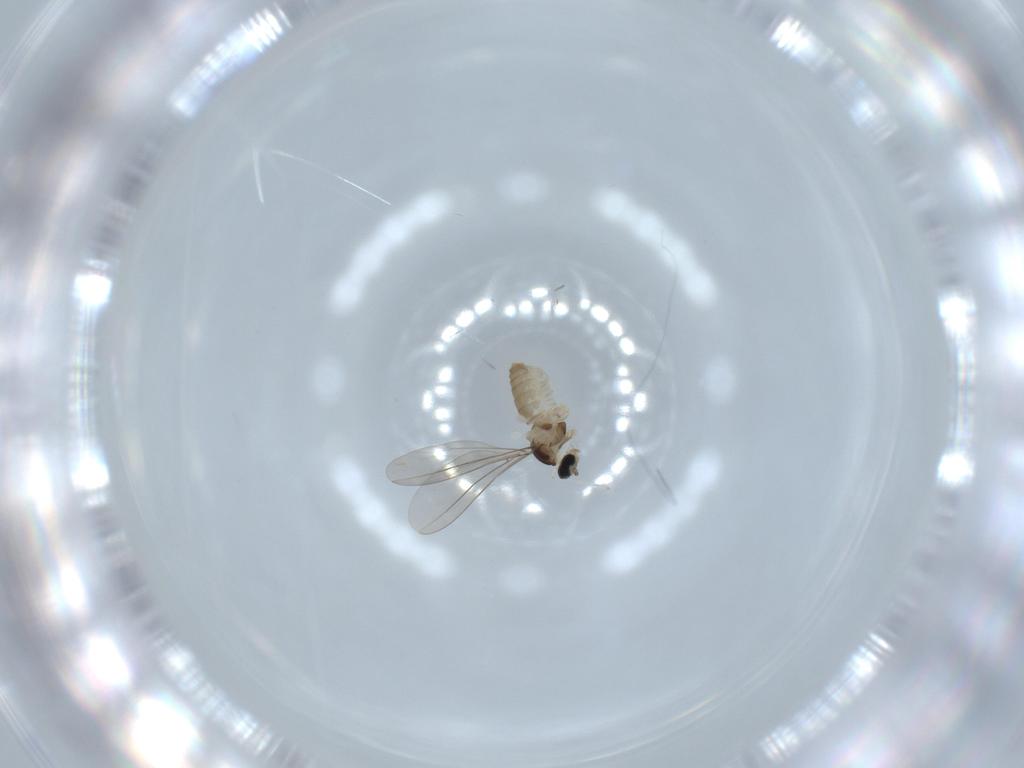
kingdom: Animalia
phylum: Arthropoda
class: Insecta
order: Diptera
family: Cecidomyiidae
